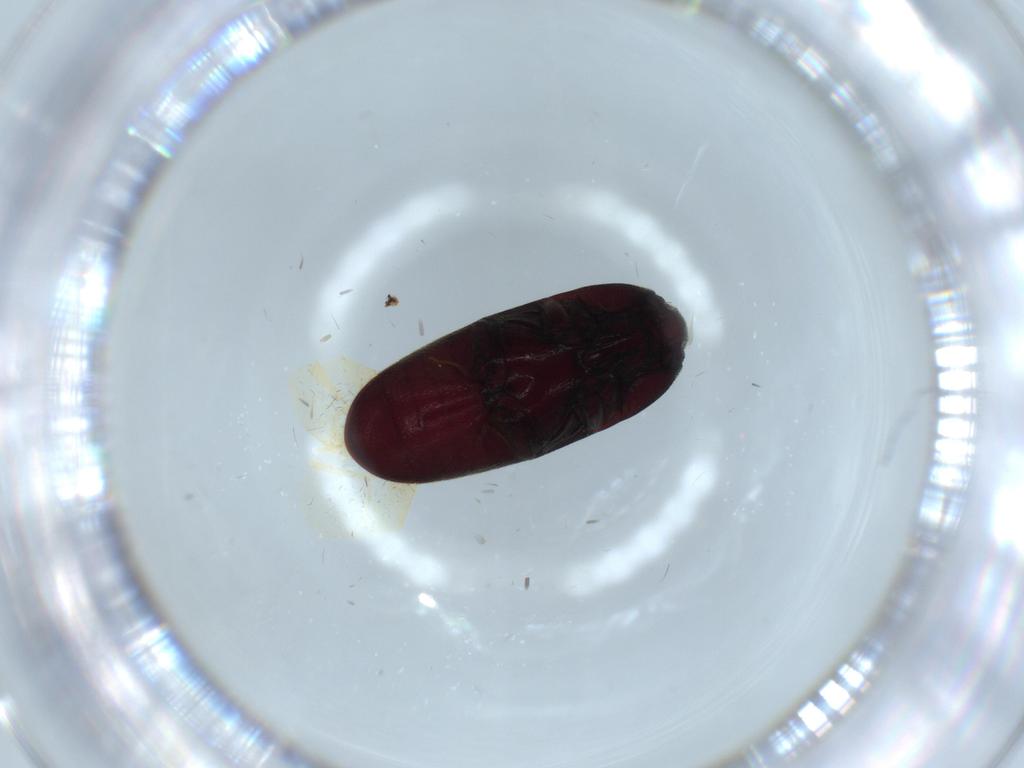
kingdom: Animalia
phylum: Arthropoda
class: Insecta
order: Coleoptera
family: Throscidae
